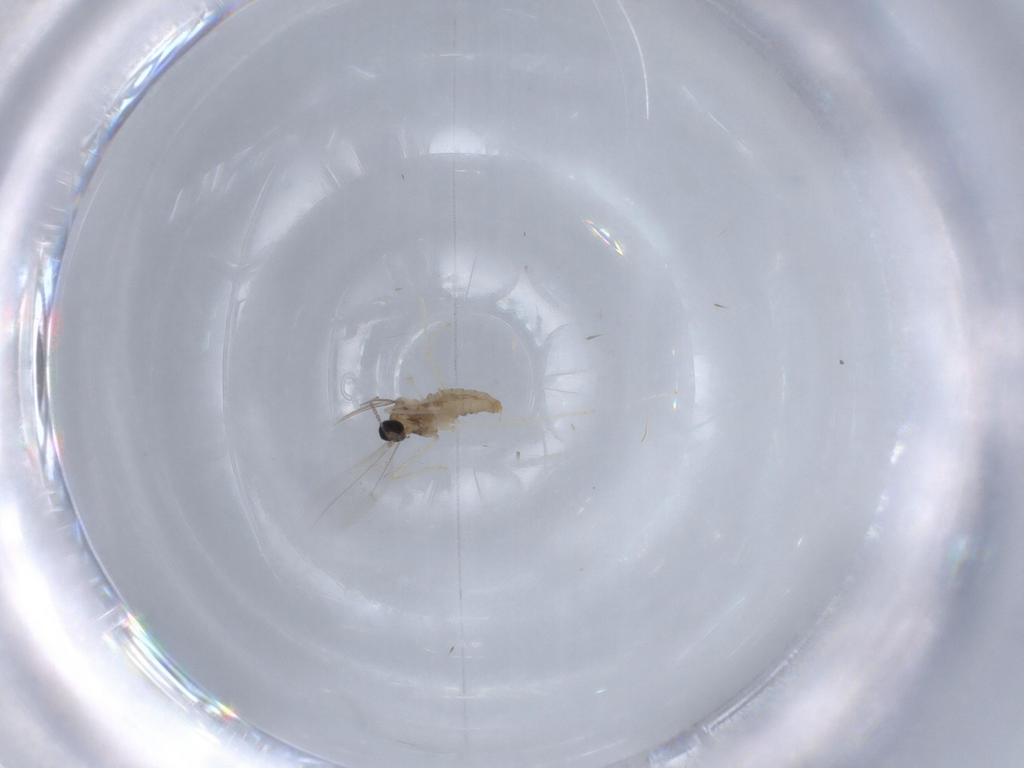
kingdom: Animalia
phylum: Arthropoda
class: Insecta
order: Diptera
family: Cecidomyiidae
